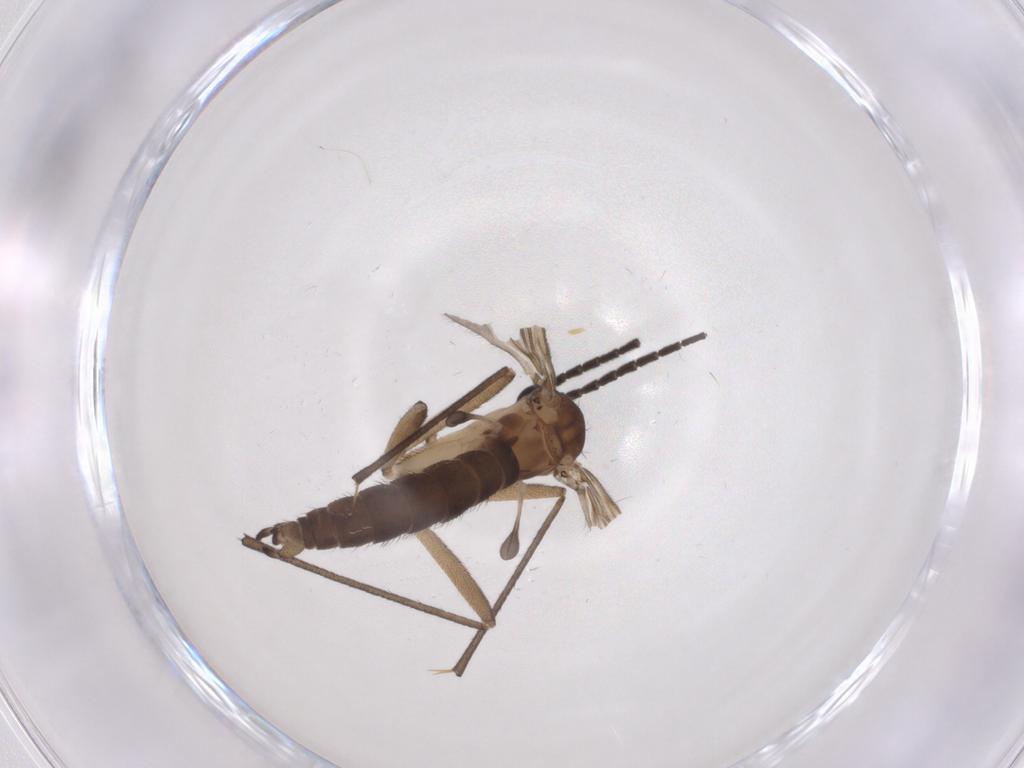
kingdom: Animalia
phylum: Arthropoda
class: Insecta
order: Diptera
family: Sciaridae
